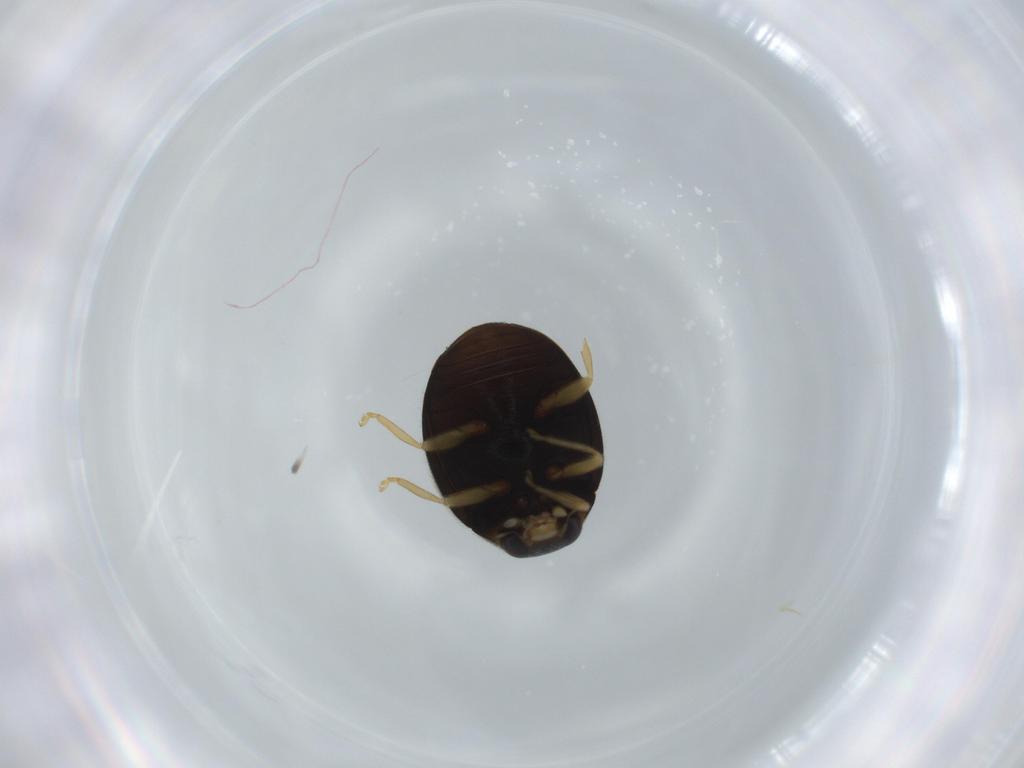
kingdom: Animalia
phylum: Arthropoda
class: Insecta
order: Coleoptera
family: Coccinellidae
